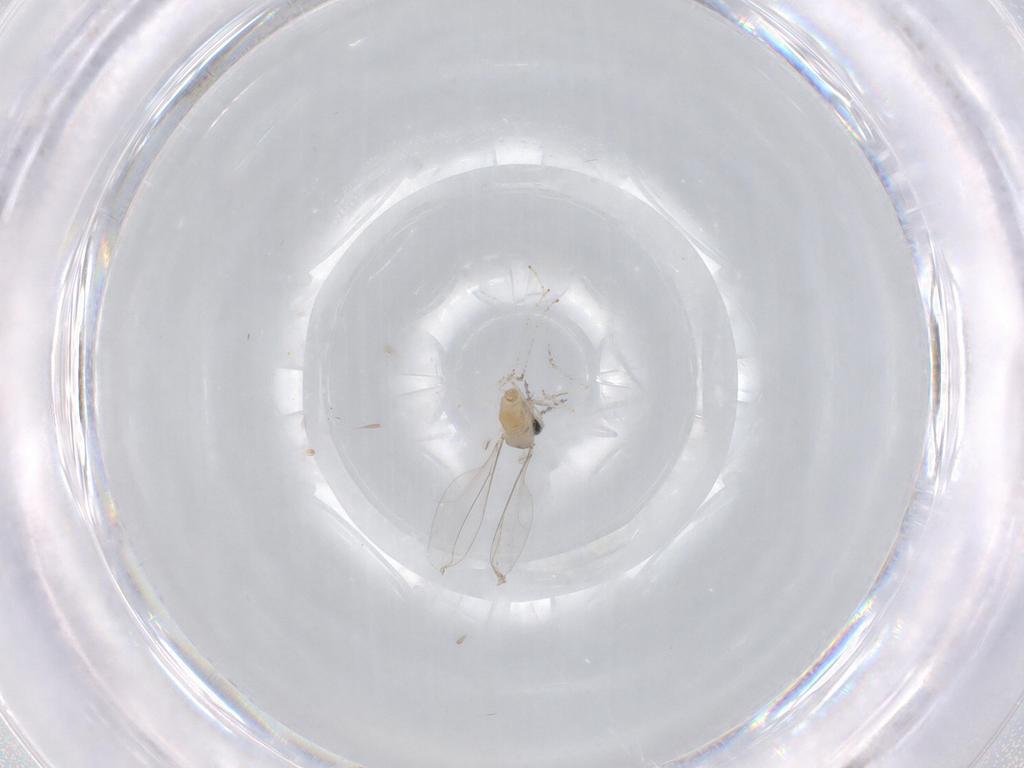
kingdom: Animalia
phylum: Arthropoda
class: Insecta
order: Diptera
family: Cecidomyiidae
